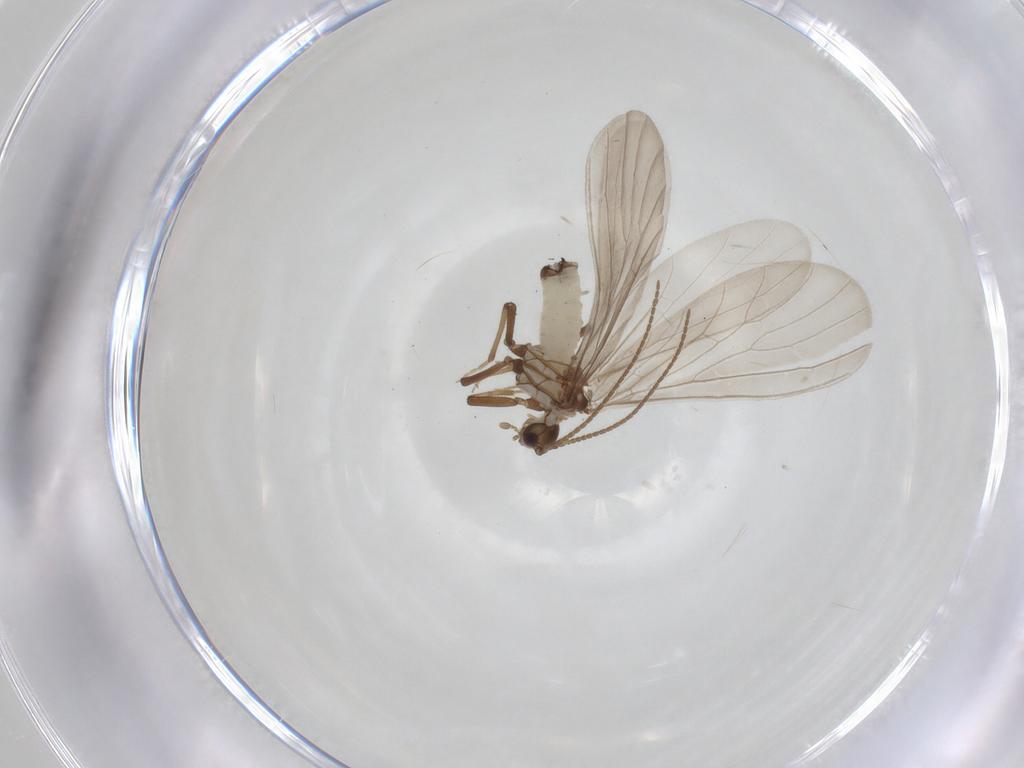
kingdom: Animalia
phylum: Arthropoda
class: Insecta
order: Neuroptera
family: Coniopterygidae
